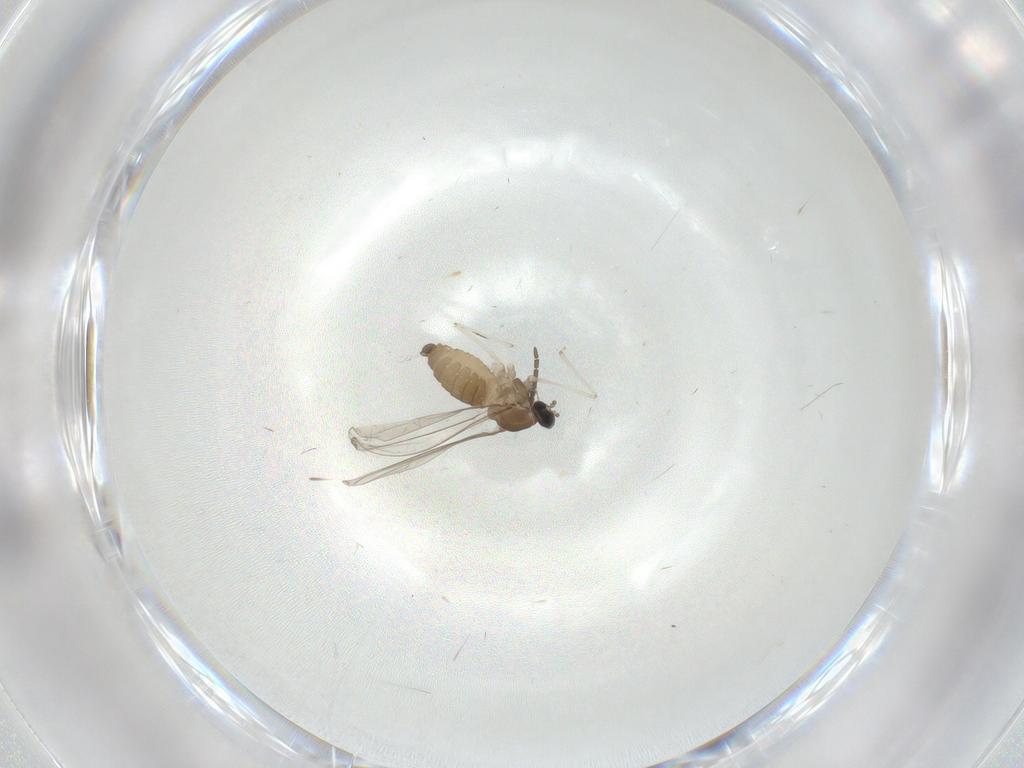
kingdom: Animalia
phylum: Arthropoda
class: Insecta
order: Diptera
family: Cecidomyiidae
